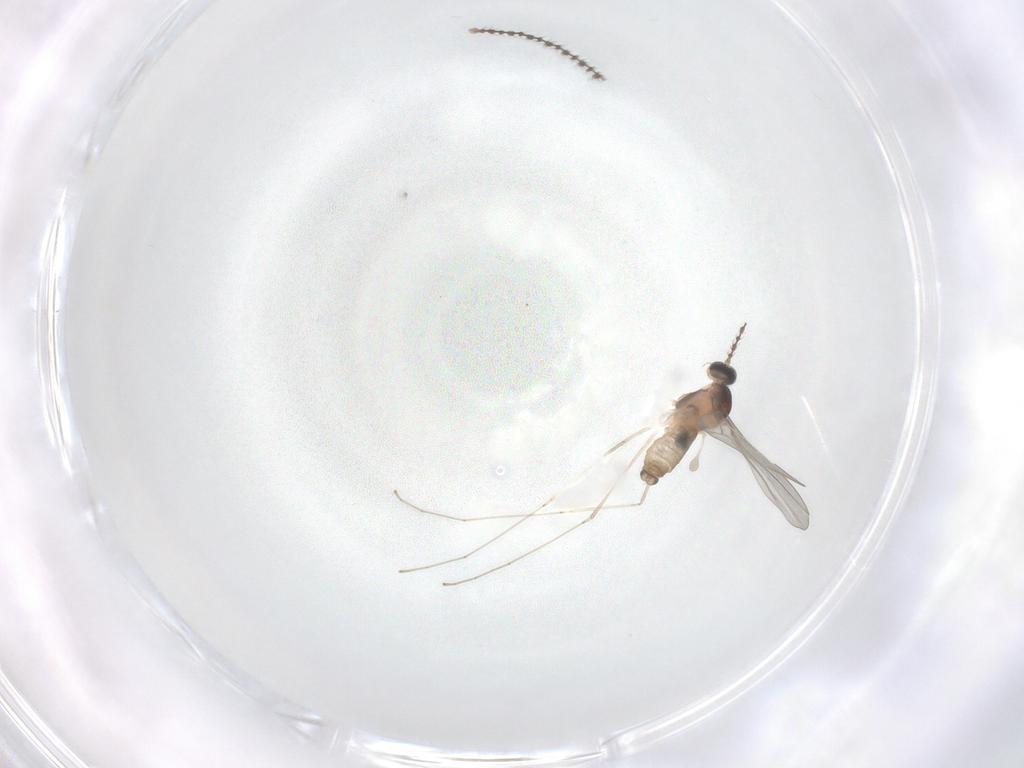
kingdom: Animalia
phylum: Arthropoda
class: Insecta
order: Diptera
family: Cecidomyiidae
